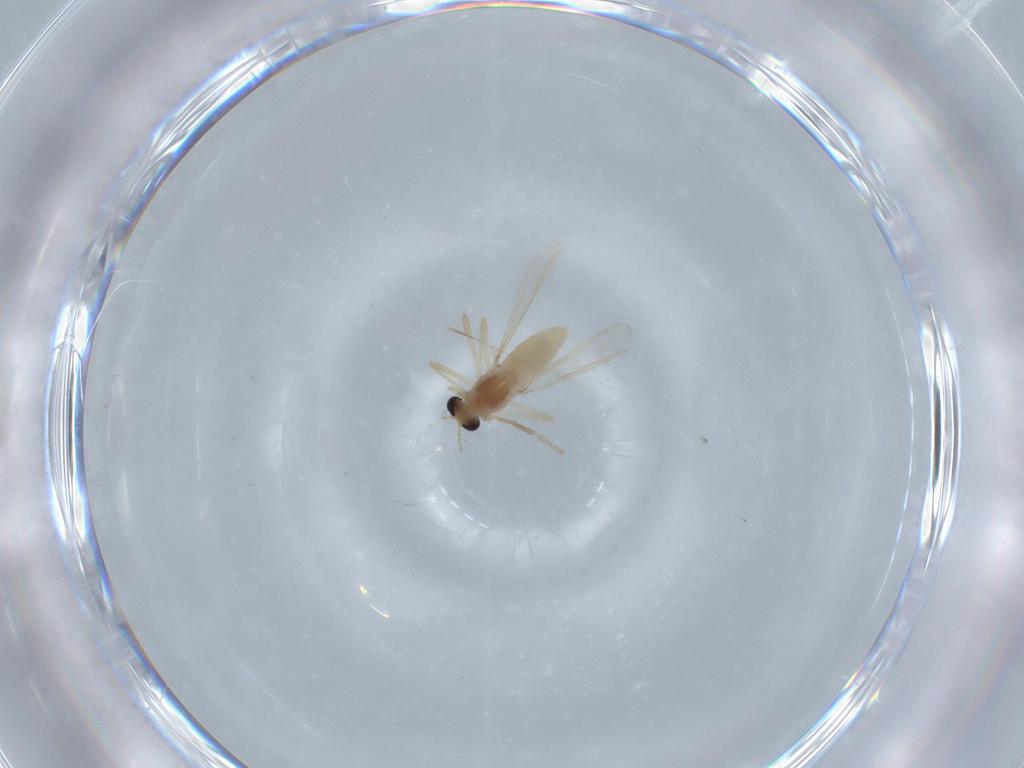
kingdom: Animalia
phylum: Arthropoda
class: Insecta
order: Diptera
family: Chironomidae
